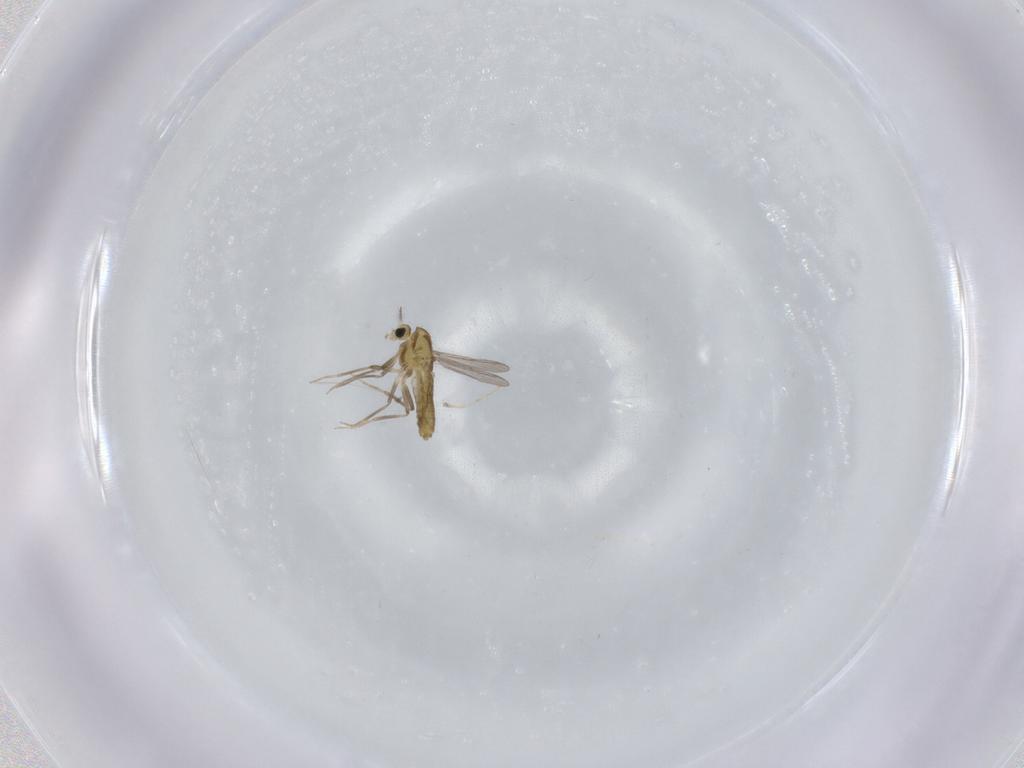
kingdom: Animalia
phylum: Arthropoda
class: Insecta
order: Diptera
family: Chironomidae
